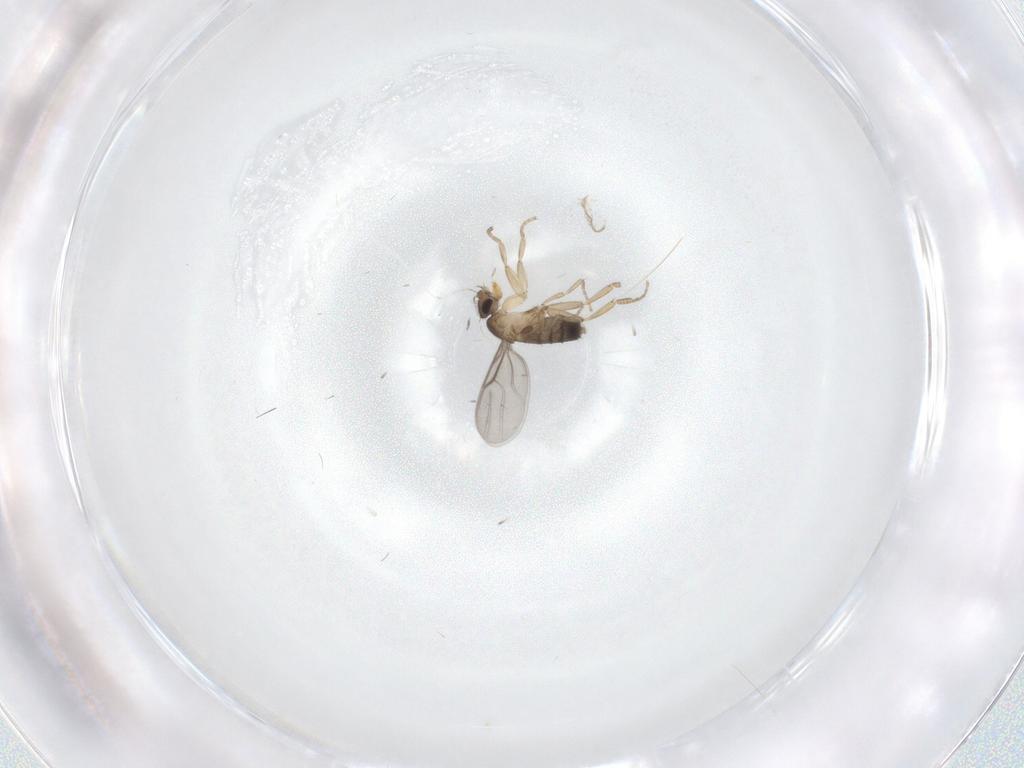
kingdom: Animalia
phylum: Arthropoda
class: Insecta
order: Diptera
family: Phoridae
